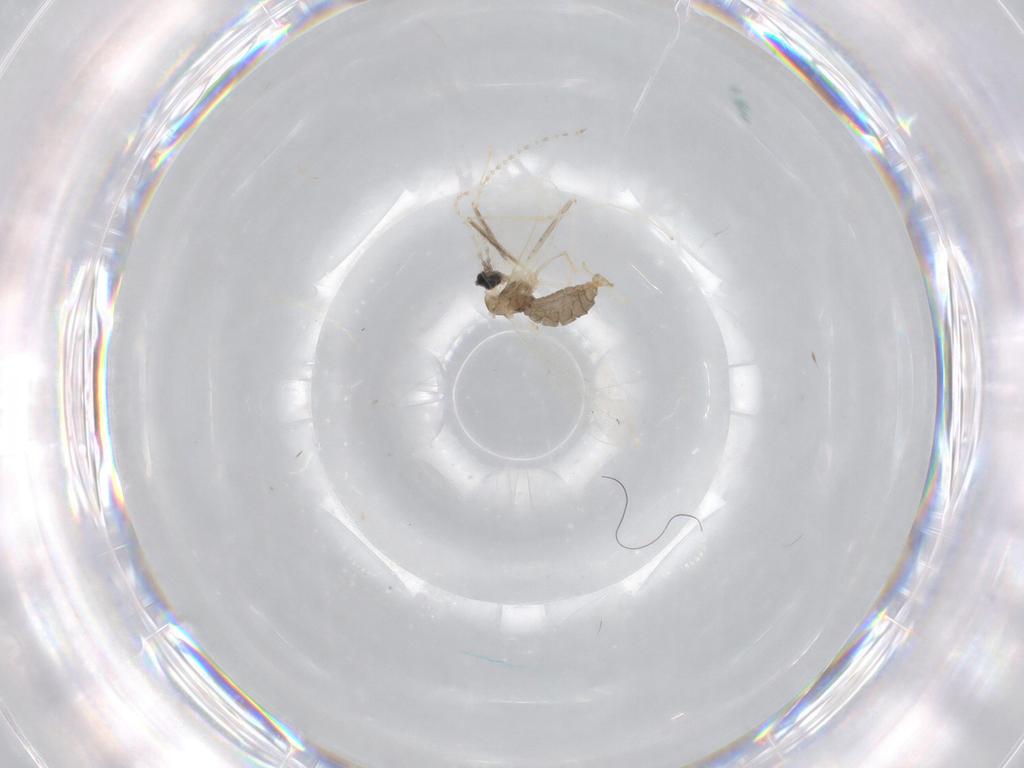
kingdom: Animalia
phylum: Arthropoda
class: Insecta
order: Diptera
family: Cecidomyiidae
